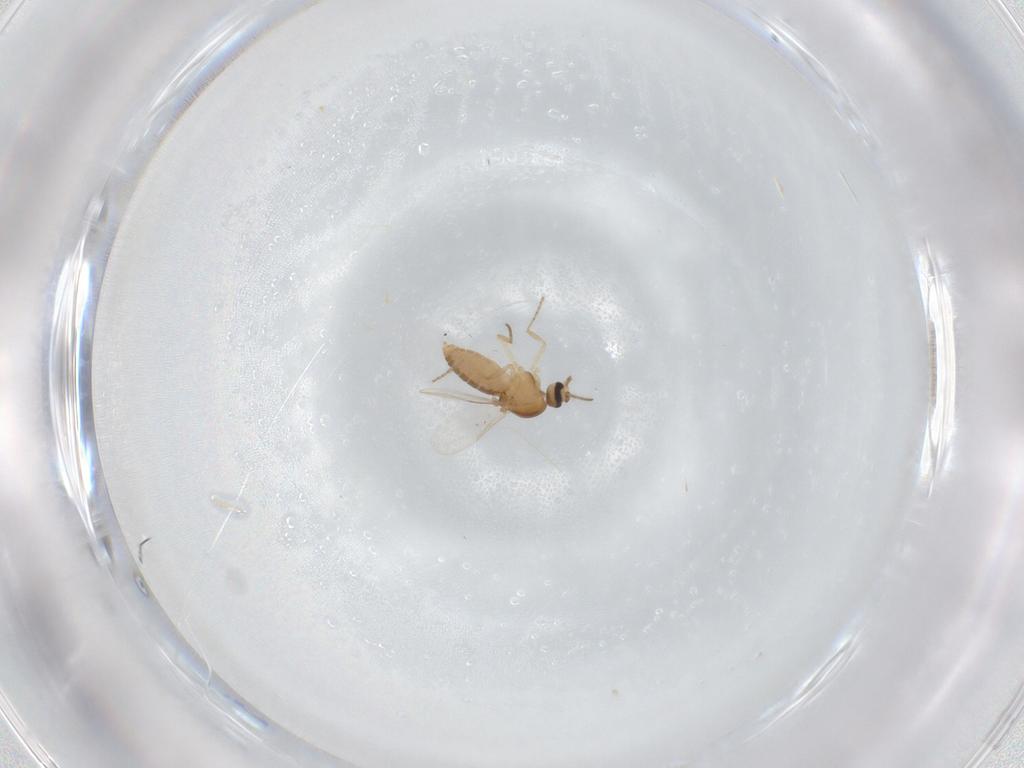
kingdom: Animalia
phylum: Arthropoda
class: Insecta
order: Diptera
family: Ceratopogonidae
